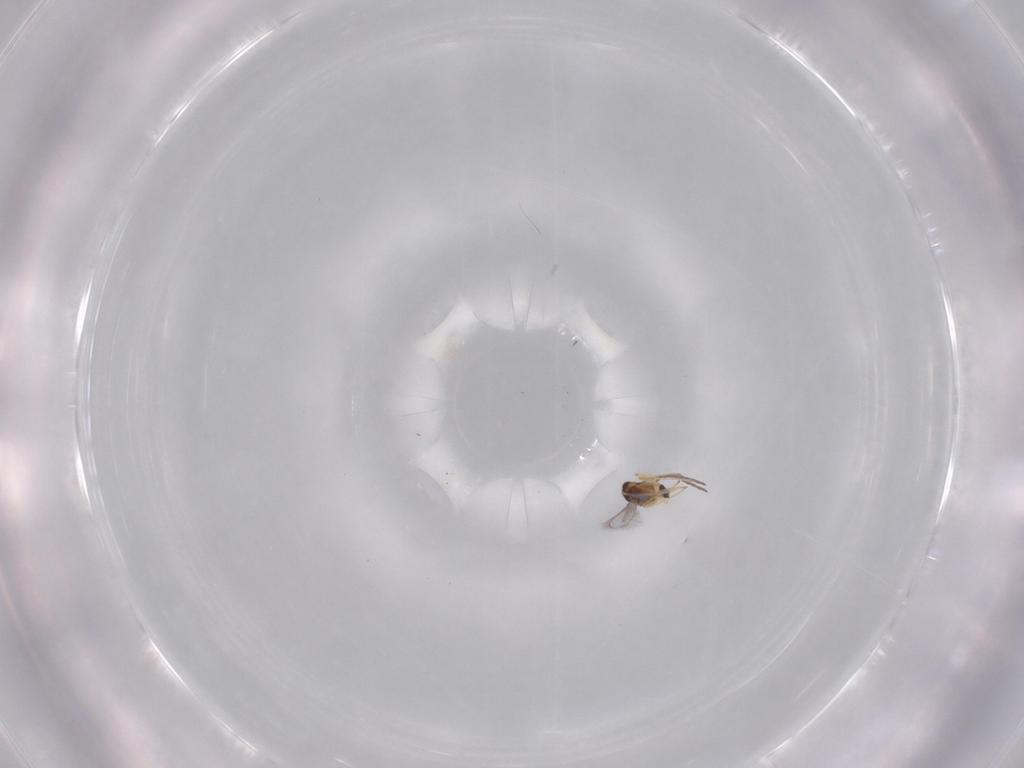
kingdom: Animalia
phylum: Arthropoda
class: Insecta
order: Hymenoptera
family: Mymaridae
